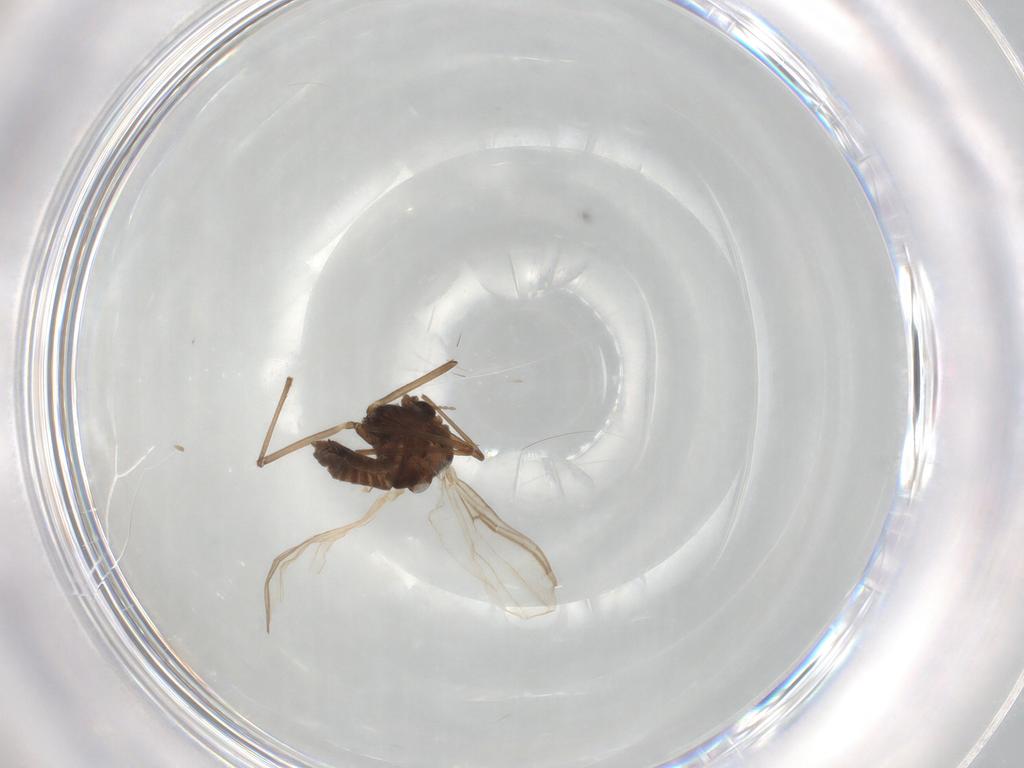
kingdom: Animalia
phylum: Arthropoda
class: Insecta
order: Diptera
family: Chironomidae
